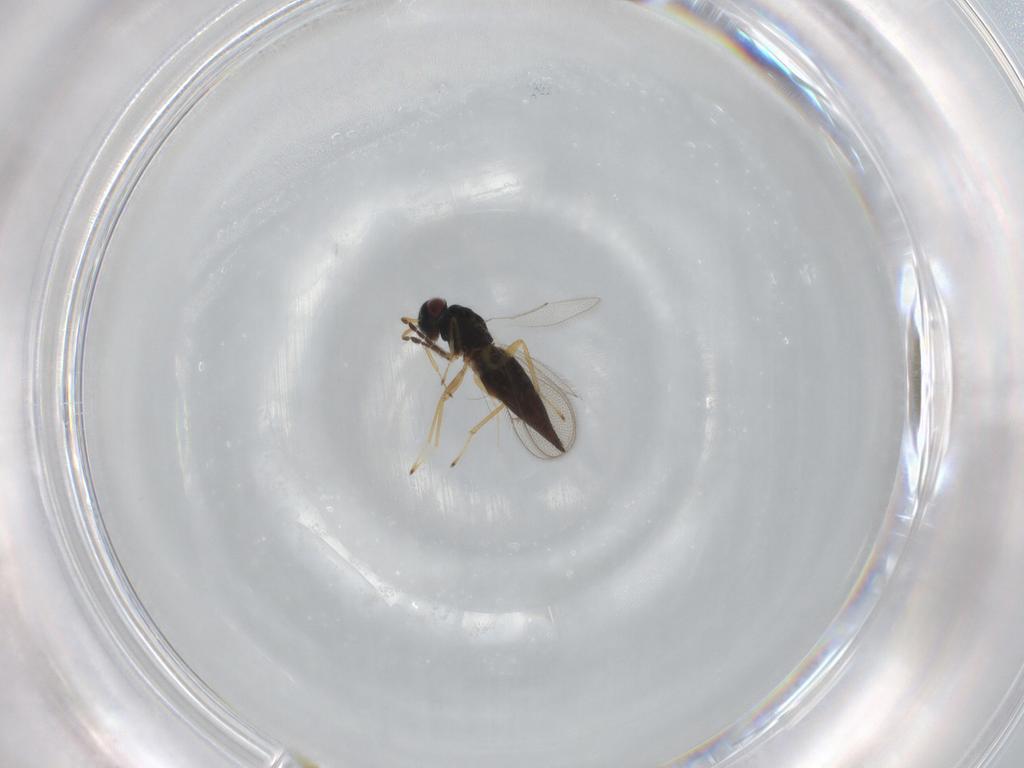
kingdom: Animalia
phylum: Arthropoda
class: Insecta
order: Hymenoptera
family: Eulophidae
